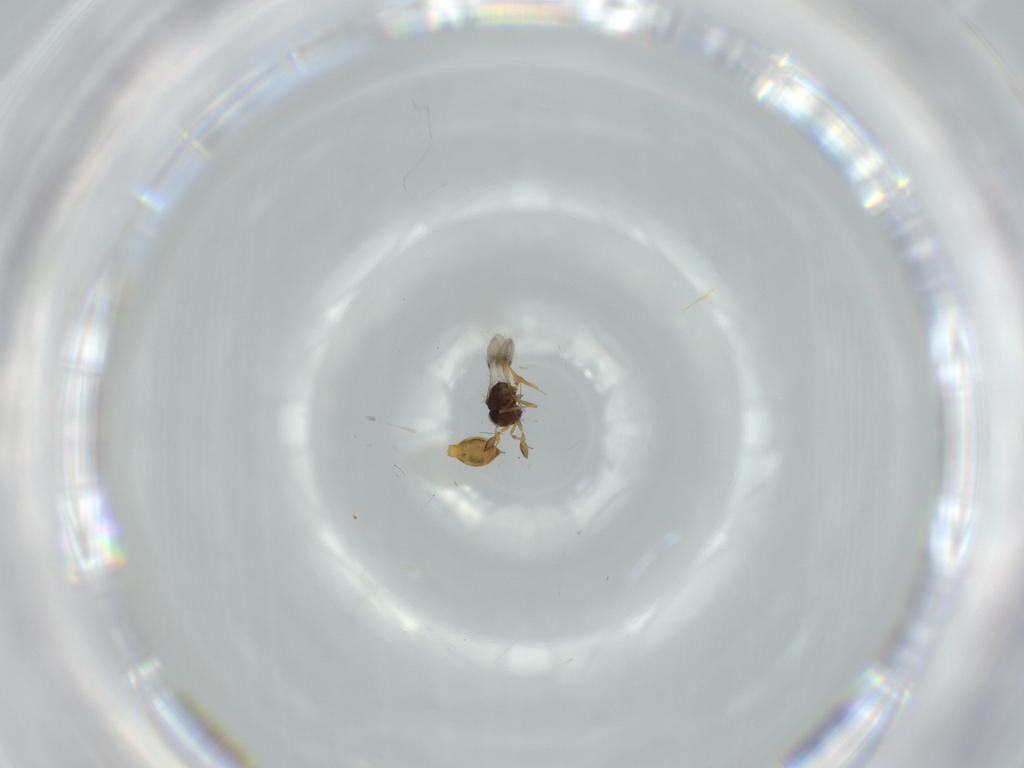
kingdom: Animalia
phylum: Arthropoda
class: Insecta
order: Hymenoptera
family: Scelionidae
